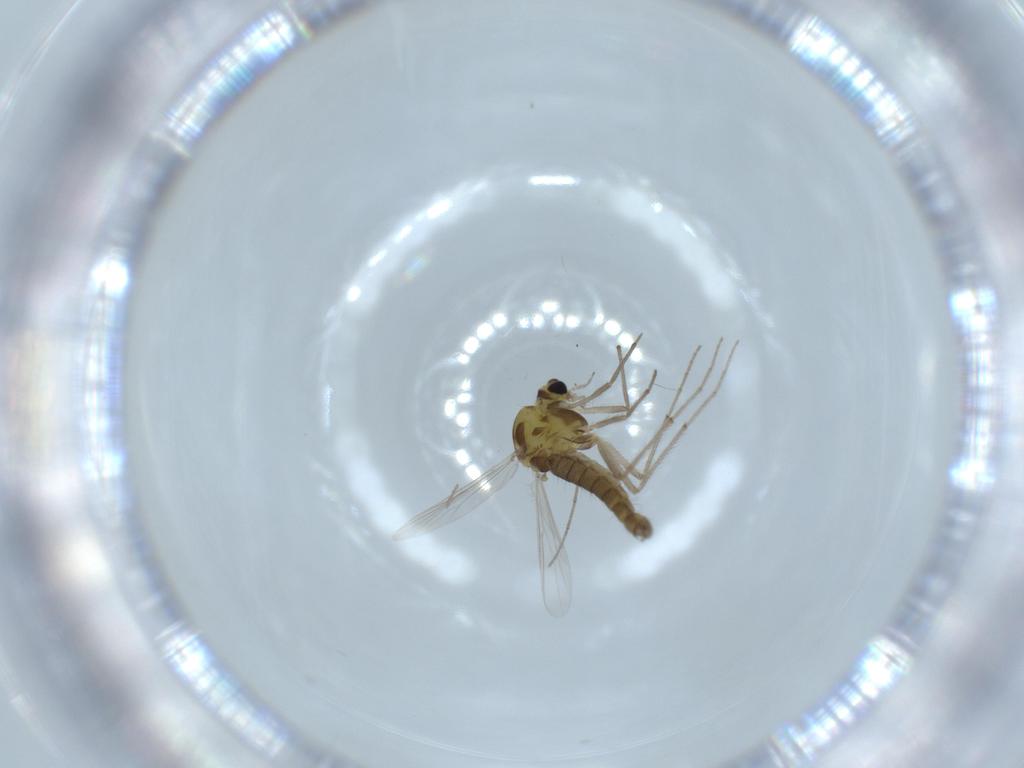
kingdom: Animalia
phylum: Arthropoda
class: Insecta
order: Diptera
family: Chironomidae
